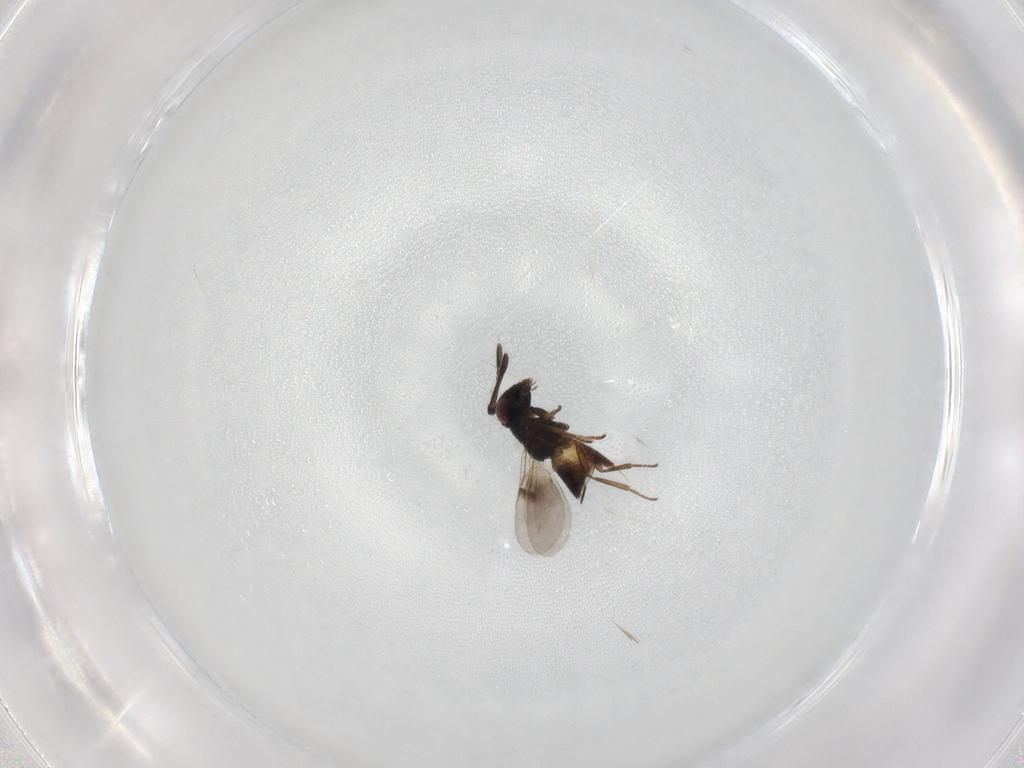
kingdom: Animalia
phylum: Arthropoda
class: Insecta
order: Hymenoptera
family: Encyrtidae
